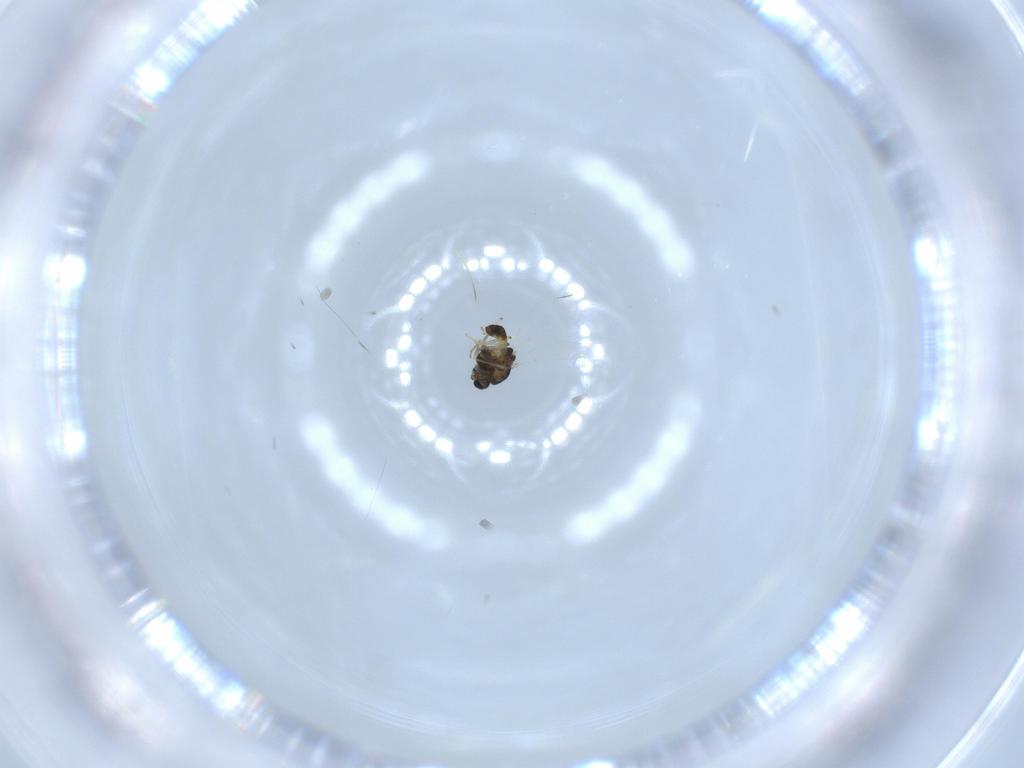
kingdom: Animalia
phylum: Arthropoda
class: Insecta
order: Diptera
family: Chironomidae
